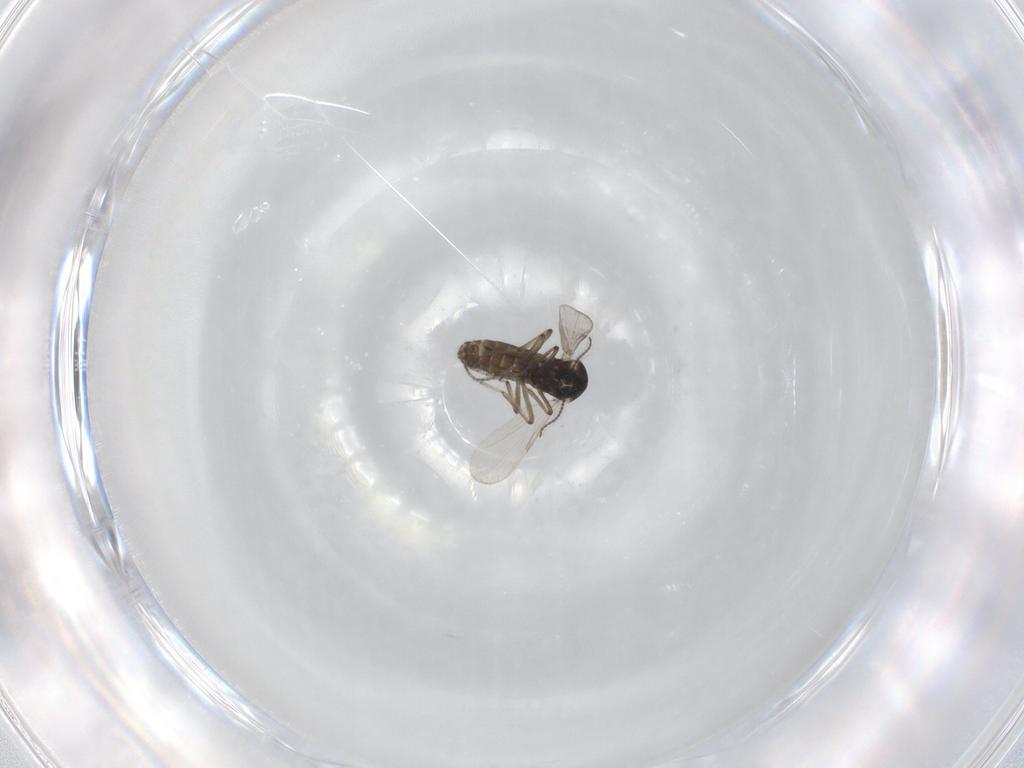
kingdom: Animalia
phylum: Arthropoda
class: Insecta
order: Diptera
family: Ceratopogonidae
